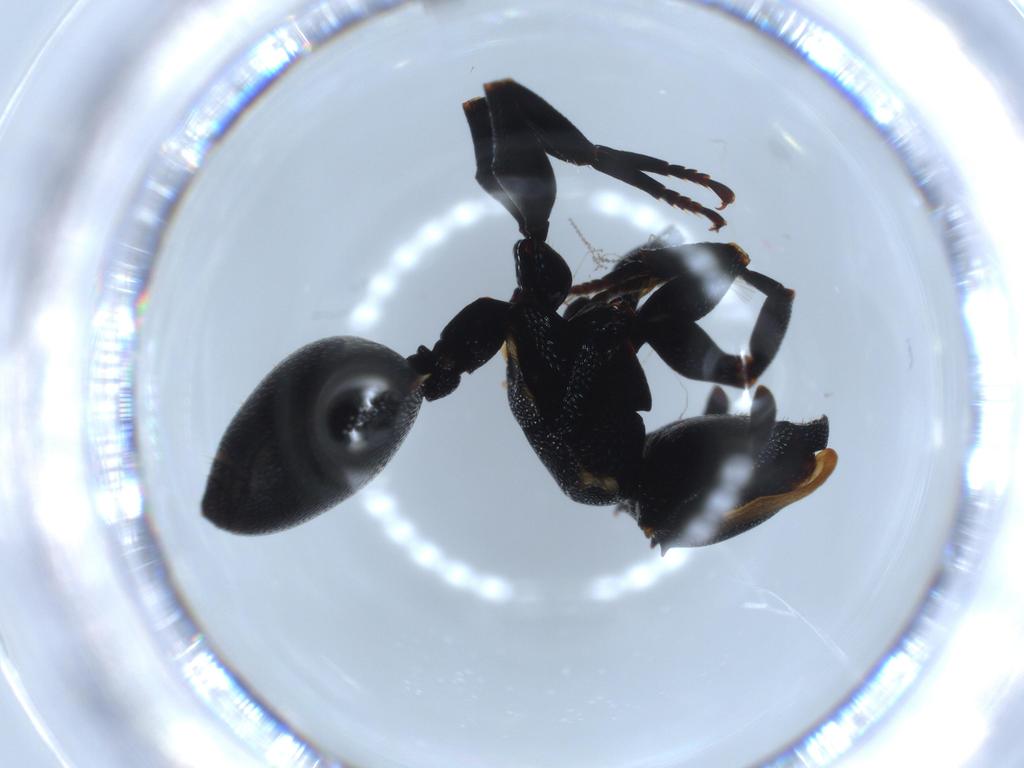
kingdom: Animalia
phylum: Arthropoda
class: Insecta
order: Hymenoptera
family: Formicidae
